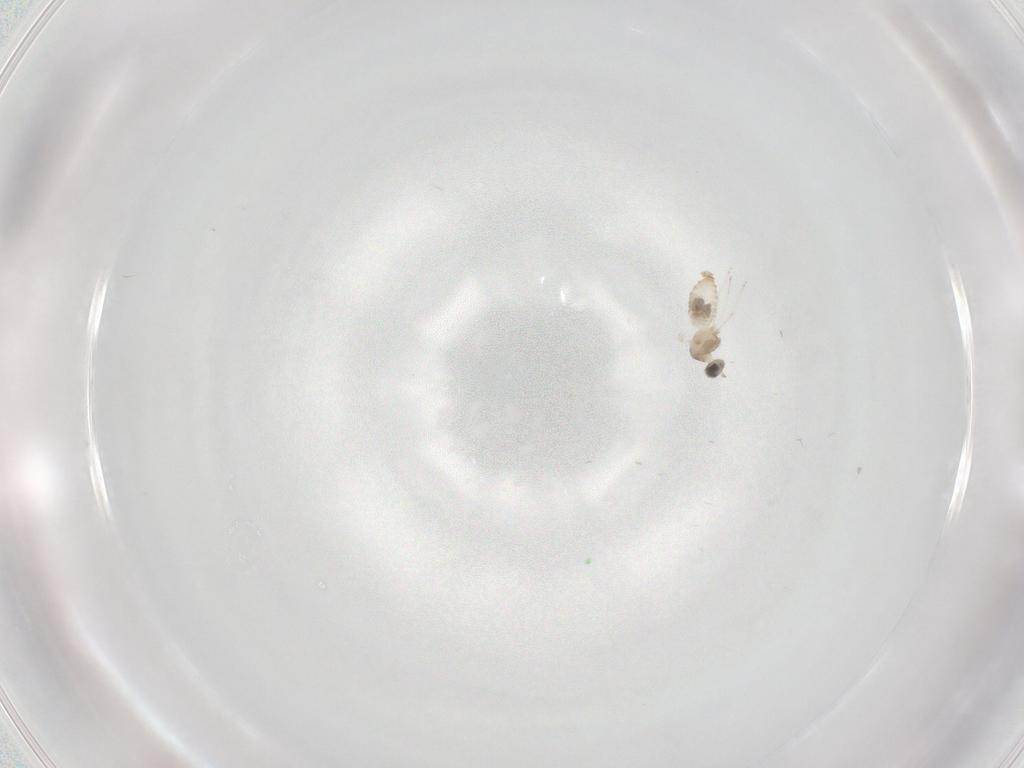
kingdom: Animalia
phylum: Arthropoda
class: Insecta
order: Diptera
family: Cecidomyiidae
